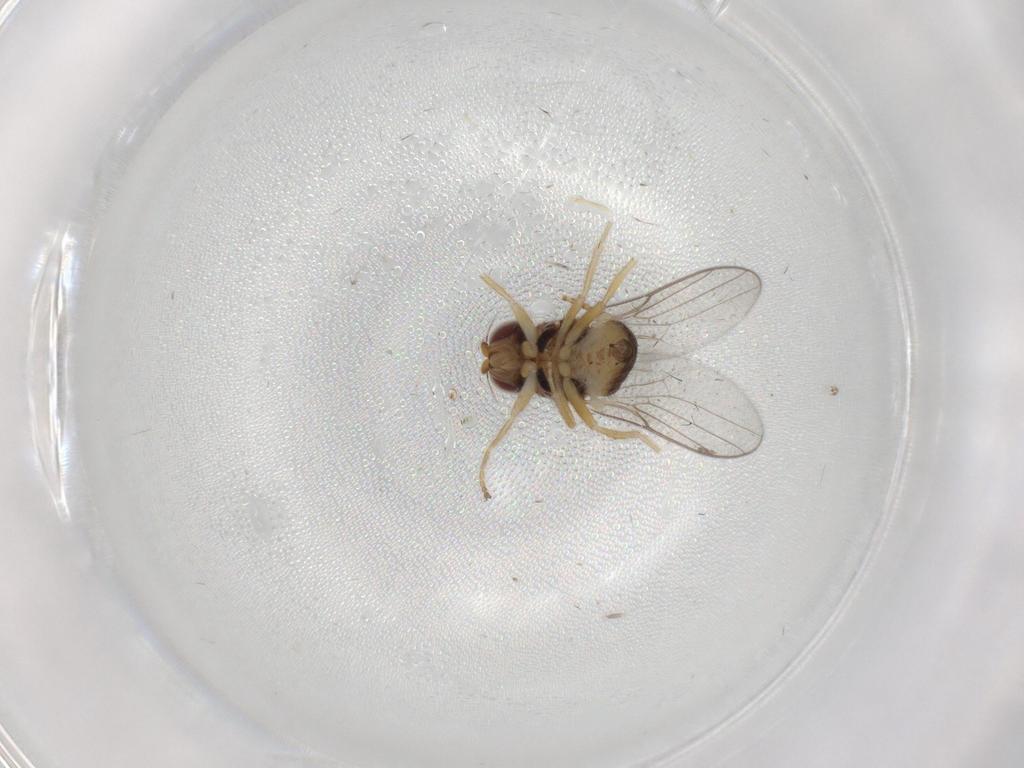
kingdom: Animalia
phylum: Arthropoda
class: Insecta
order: Diptera
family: Chloropidae
